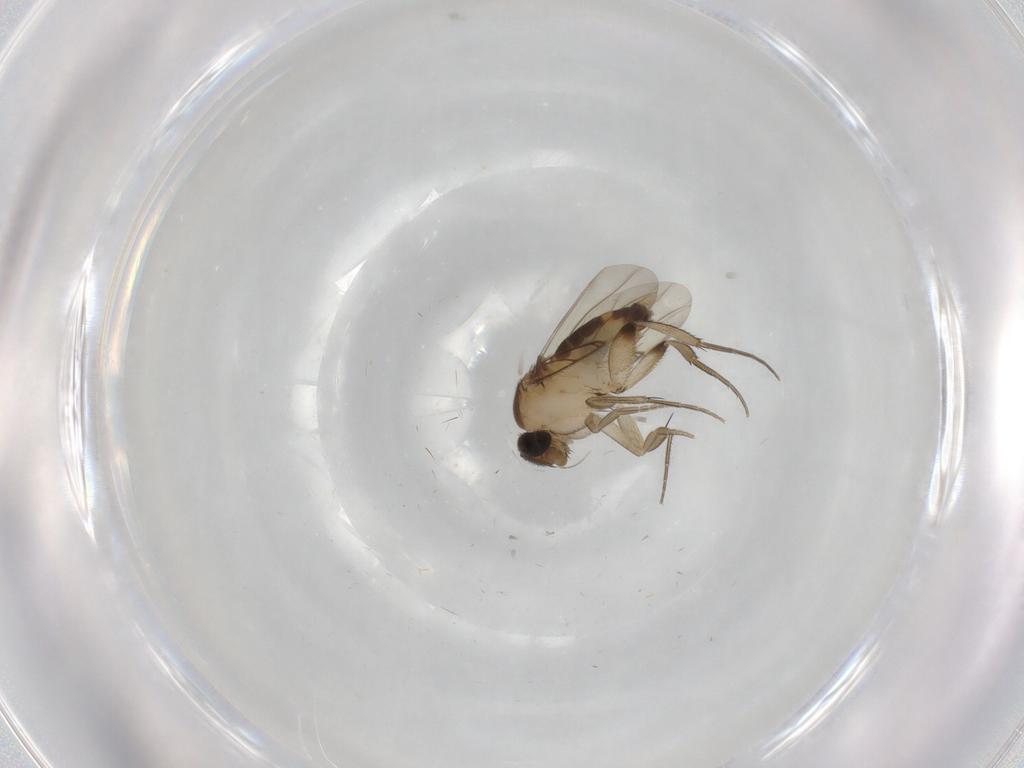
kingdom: Animalia
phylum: Arthropoda
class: Insecta
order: Diptera
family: Phoridae
